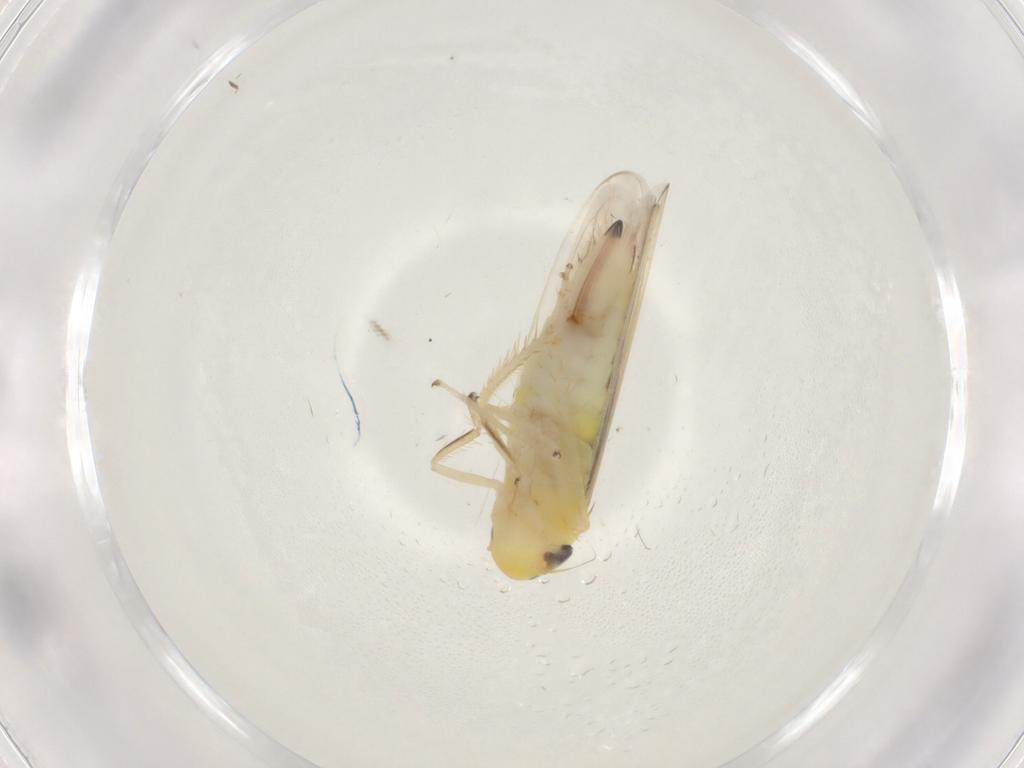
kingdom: Animalia
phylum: Arthropoda
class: Insecta
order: Hemiptera
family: Cicadellidae
